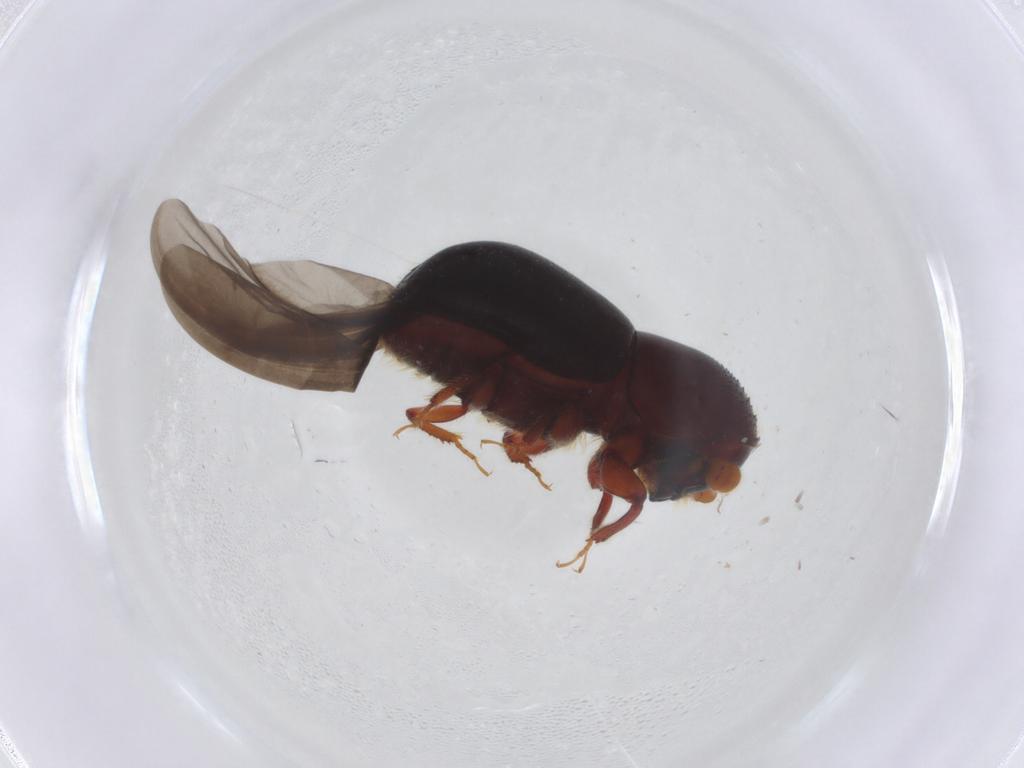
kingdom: Animalia
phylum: Arthropoda
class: Insecta
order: Coleoptera
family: Curculionidae
